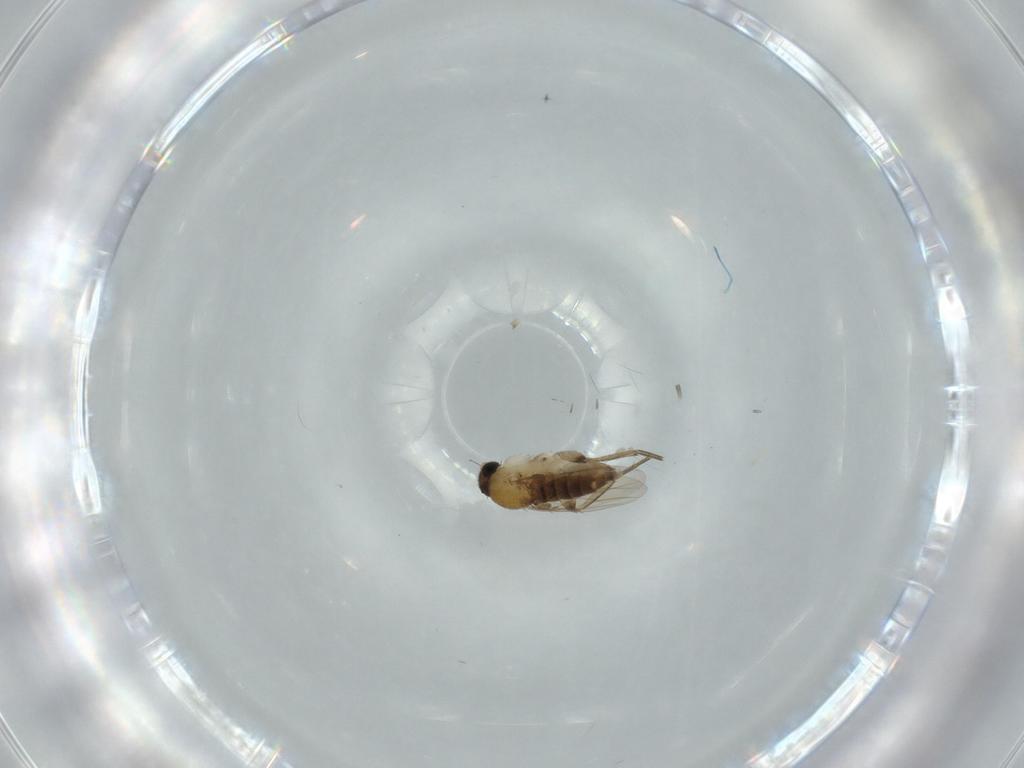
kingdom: Animalia
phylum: Arthropoda
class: Insecta
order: Diptera
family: Phoridae
